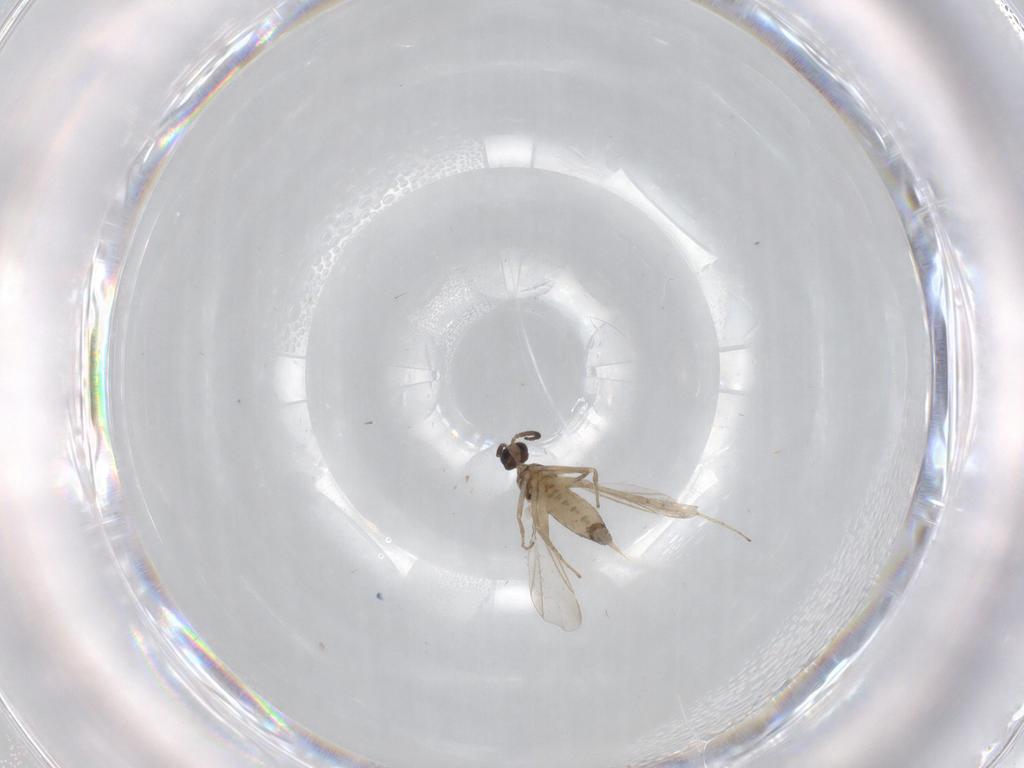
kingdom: Animalia
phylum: Arthropoda
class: Insecta
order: Diptera
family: Cecidomyiidae
